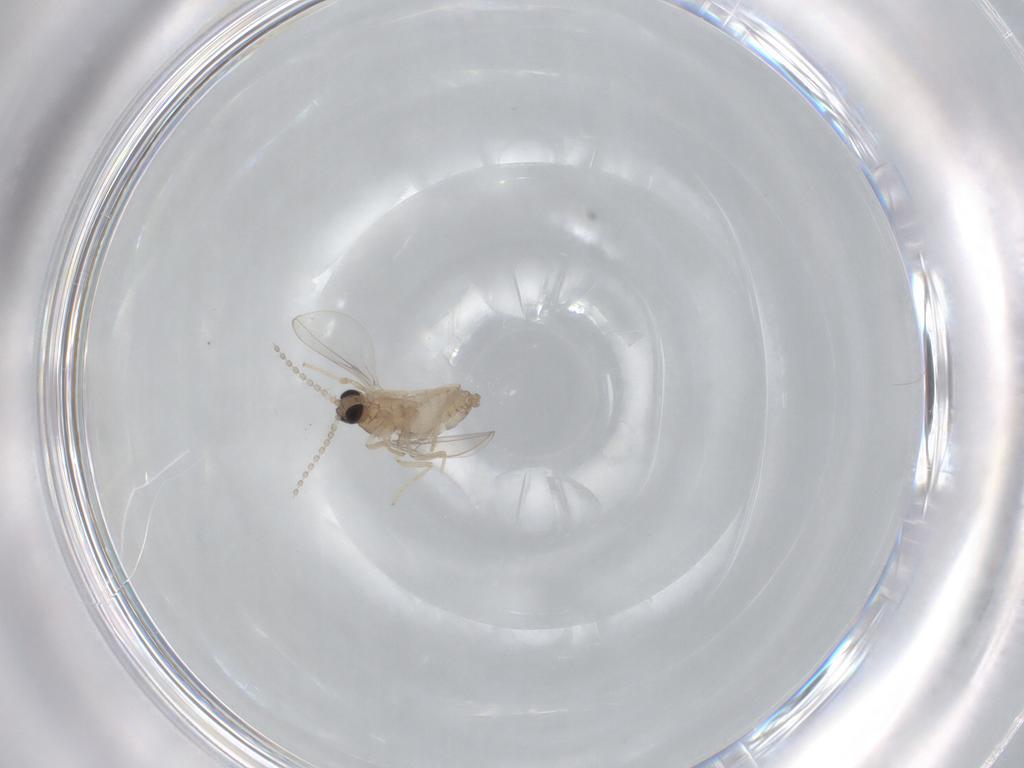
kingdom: Animalia
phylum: Arthropoda
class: Insecta
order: Diptera
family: Cecidomyiidae
